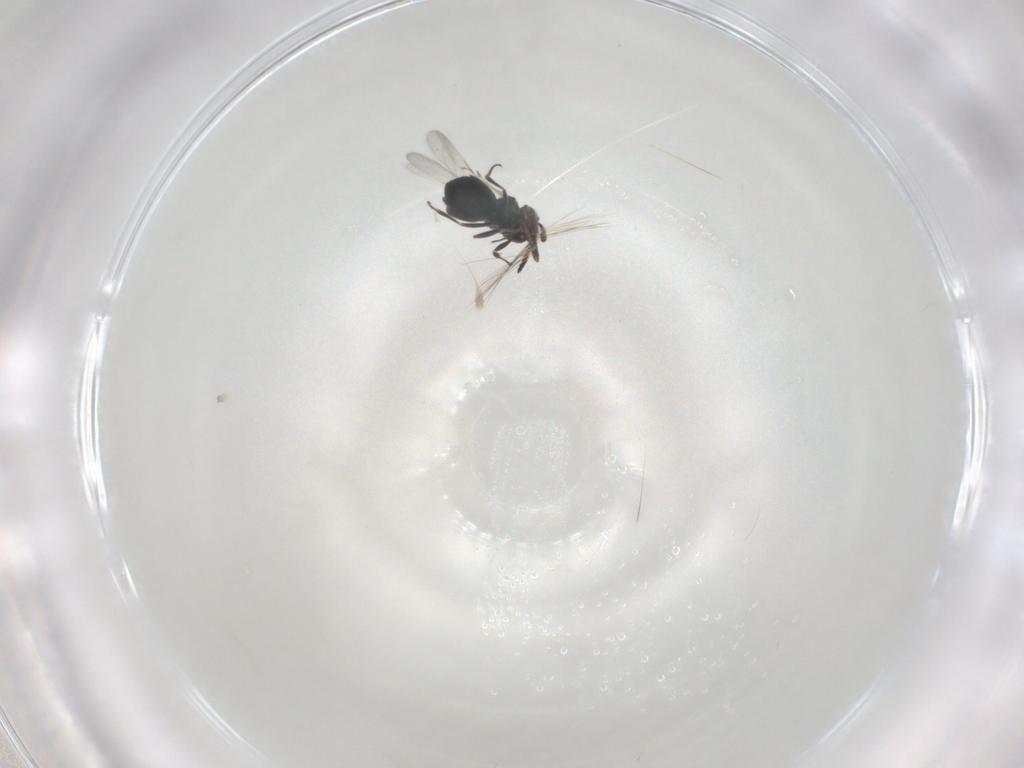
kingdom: Animalia
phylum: Arthropoda
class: Insecta
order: Hymenoptera
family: Scelionidae
